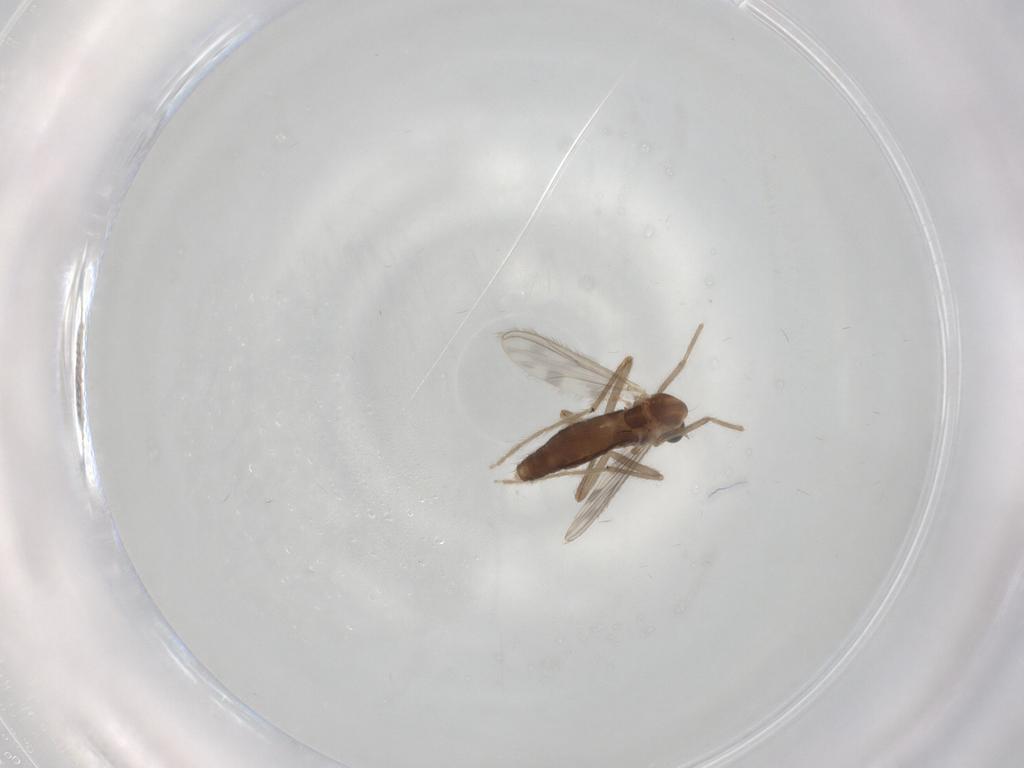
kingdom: Animalia
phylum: Arthropoda
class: Insecta
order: Diptera
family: Chironomidae
